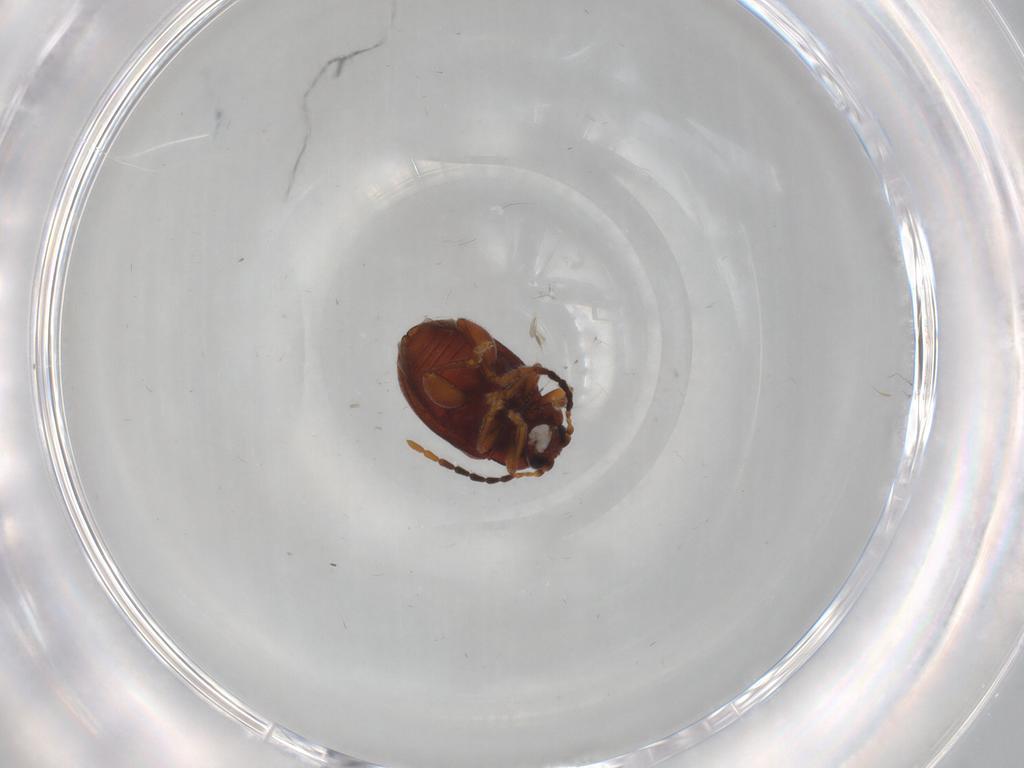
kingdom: Animalia
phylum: Arthropoda
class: Insecta
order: Coleoptera
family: Chrysomelidae
